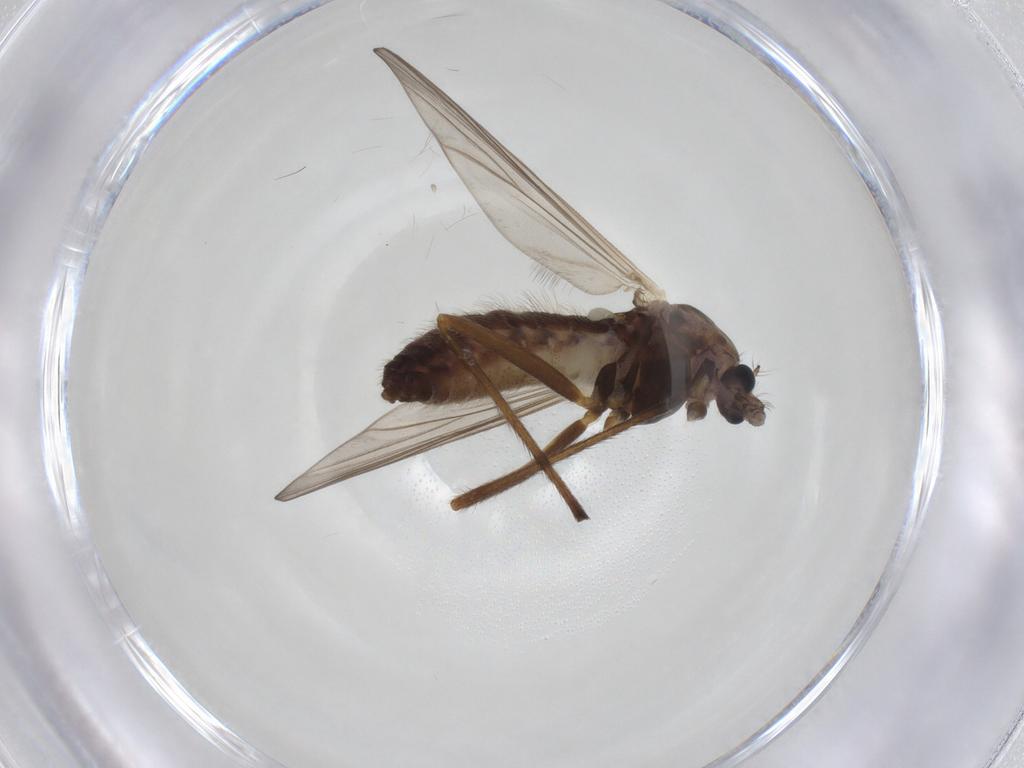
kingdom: Animalia
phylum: Arthropoda
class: Insecta
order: Diptera
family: Chironomidae
